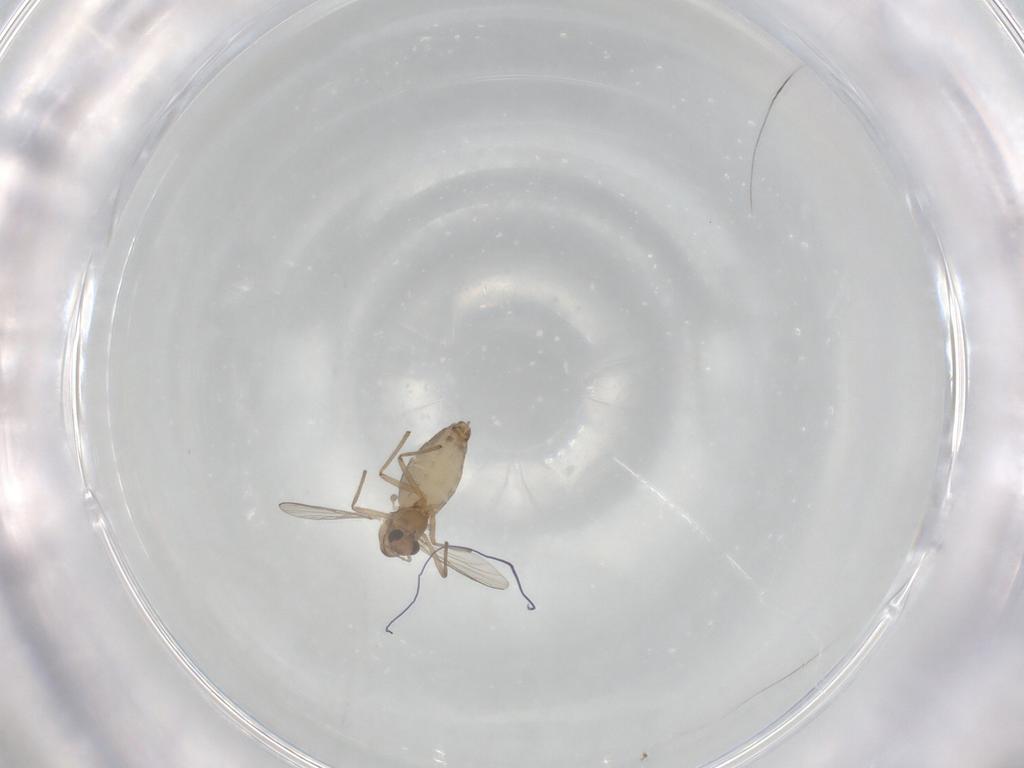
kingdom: Animalia
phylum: Arthropoda
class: Insecta
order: Diptera
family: Chironomidae
